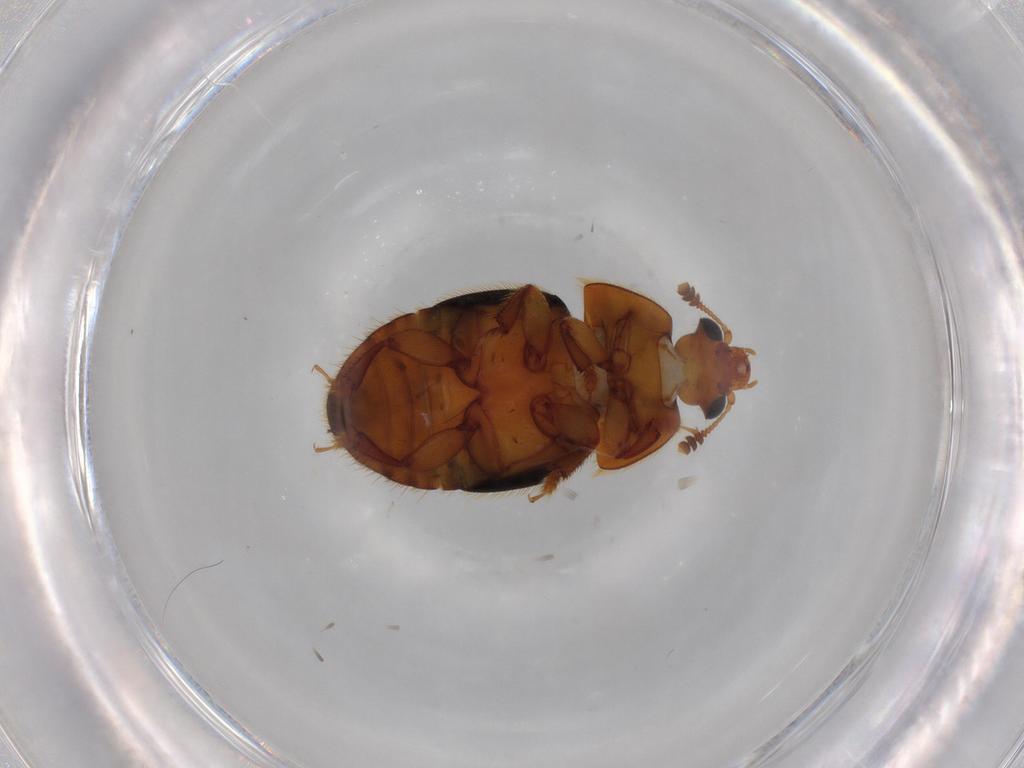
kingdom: Animalia
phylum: Arthropoda
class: Insecta
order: Coleoptera
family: Nitidulidae
